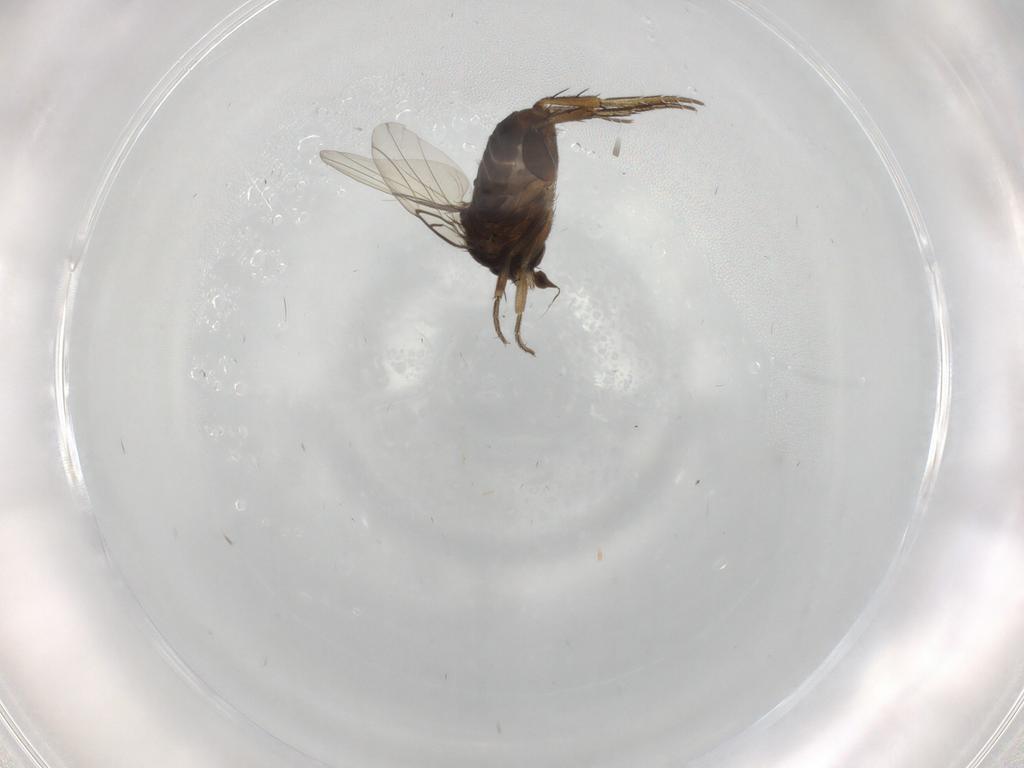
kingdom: Animalia
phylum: Arthropoda
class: Insecta
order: Diptera
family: Phoridae
